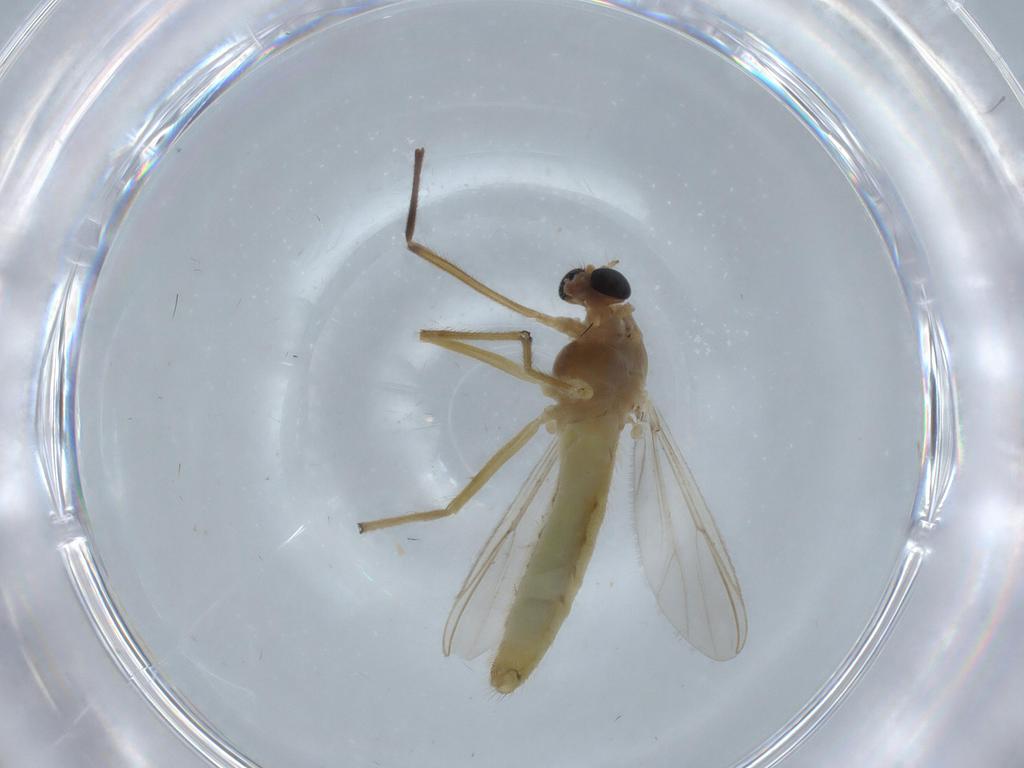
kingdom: Animalia
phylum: Arthropoda
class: Insecta
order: Diptera
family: Chironomidae
